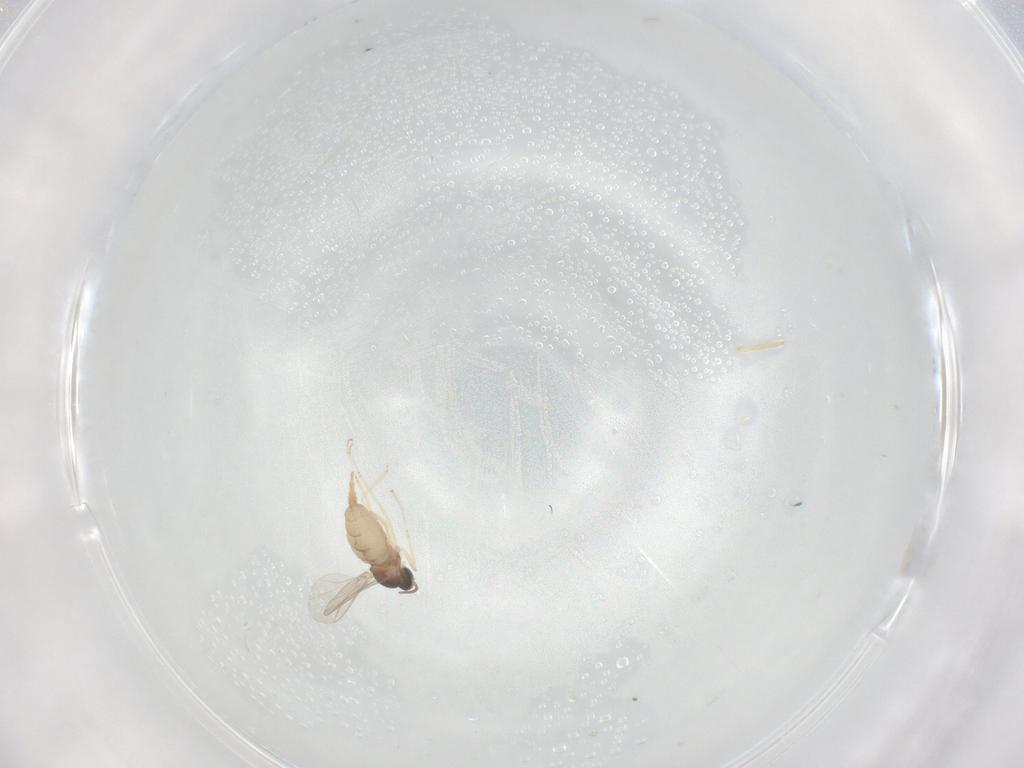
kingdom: Animalia
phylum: Arthropoda
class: Insecta
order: Diptera
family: Cecidomyiidae
